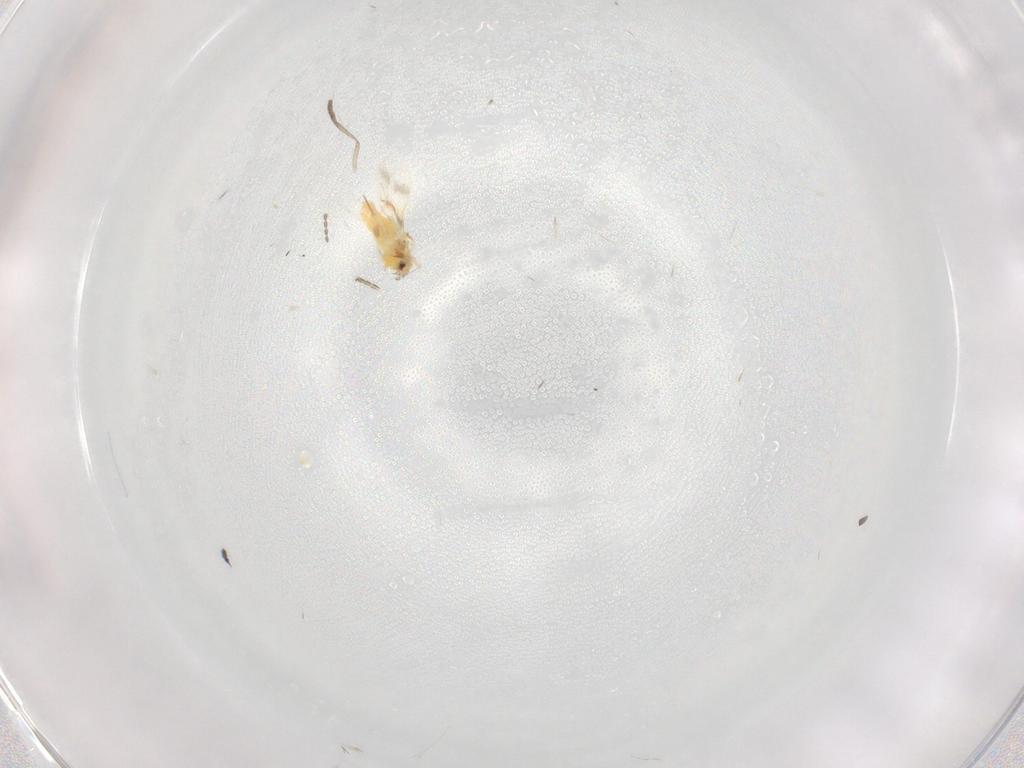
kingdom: Animalia
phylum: Arthropoda
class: Insecta
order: Hemiptera
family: Aleyrodidae
